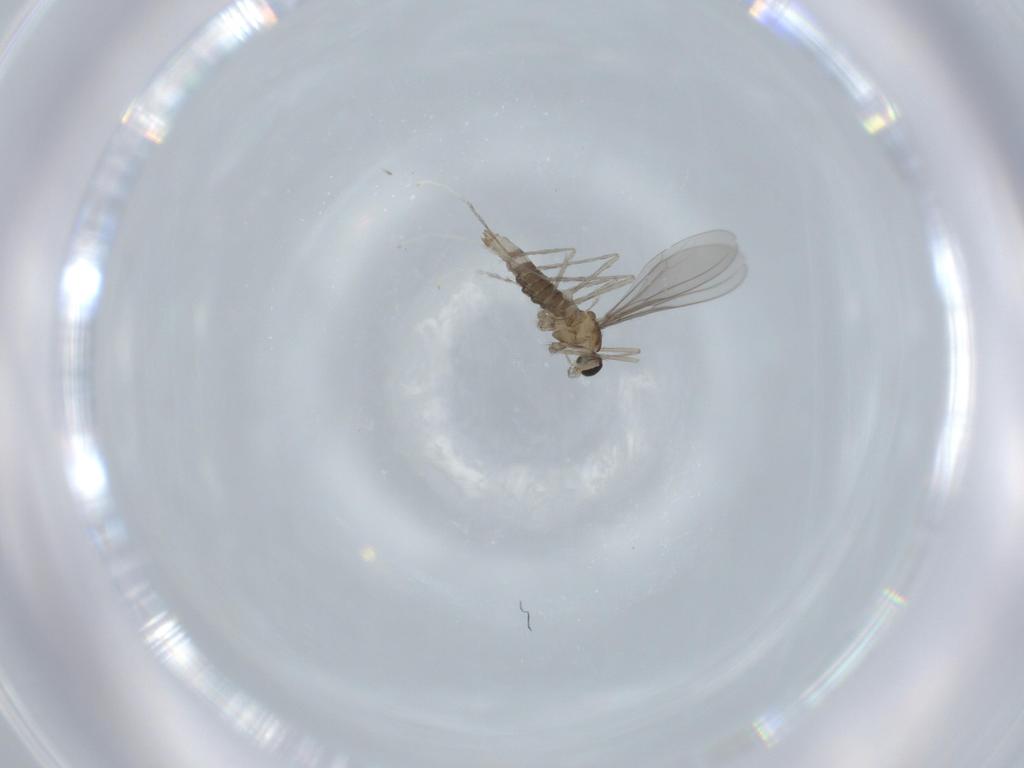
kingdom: Animalia
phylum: Arthropoda
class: Insecta
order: Diptera
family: Cecidomyiidae
